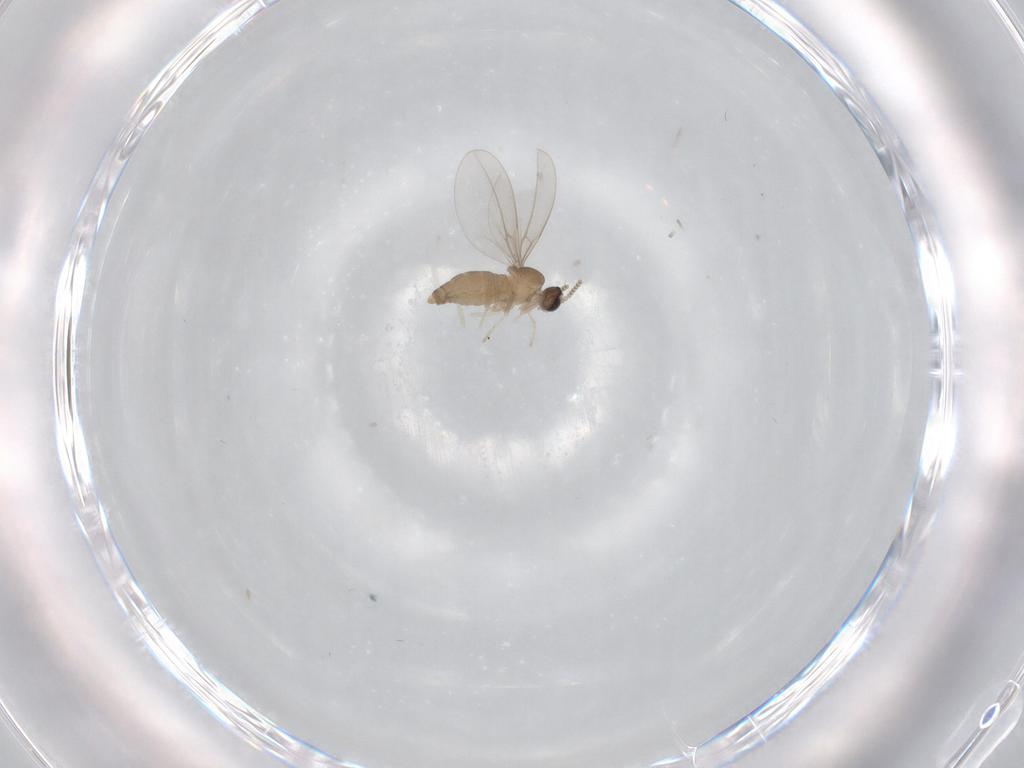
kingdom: Animalia
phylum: Arthropoda
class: Insecta
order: Diptera
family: Cecidomyiidae
